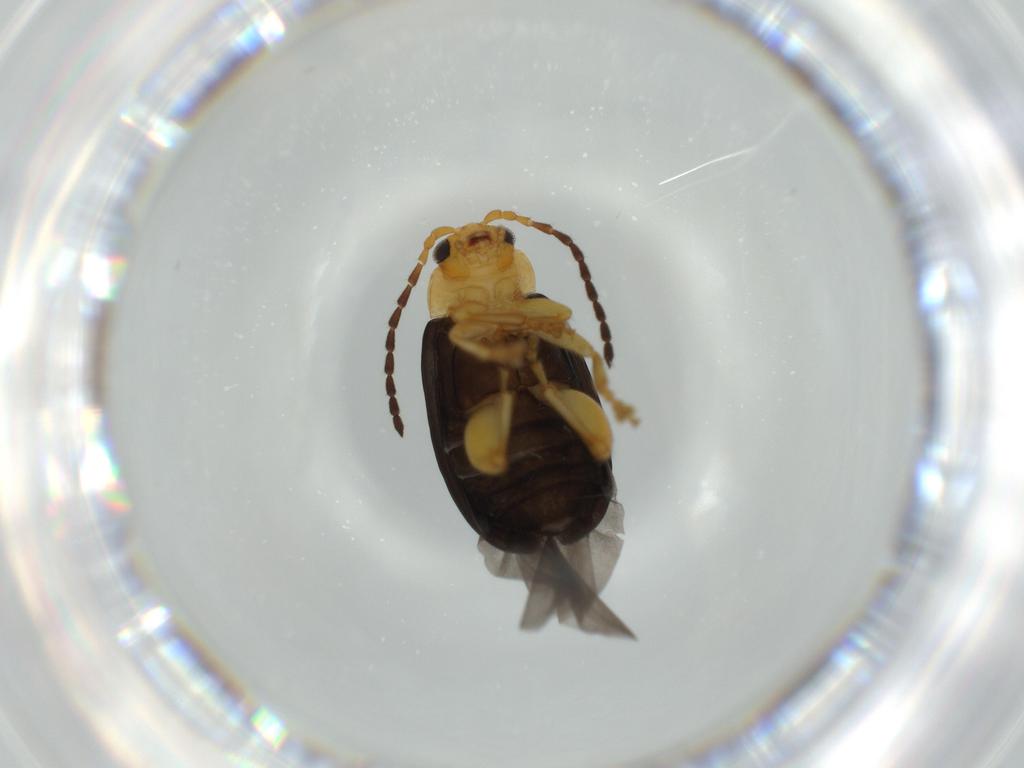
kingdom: Animalia
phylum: Arthropoda
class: Insecta
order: Coleoptera
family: Chrysomelidae
